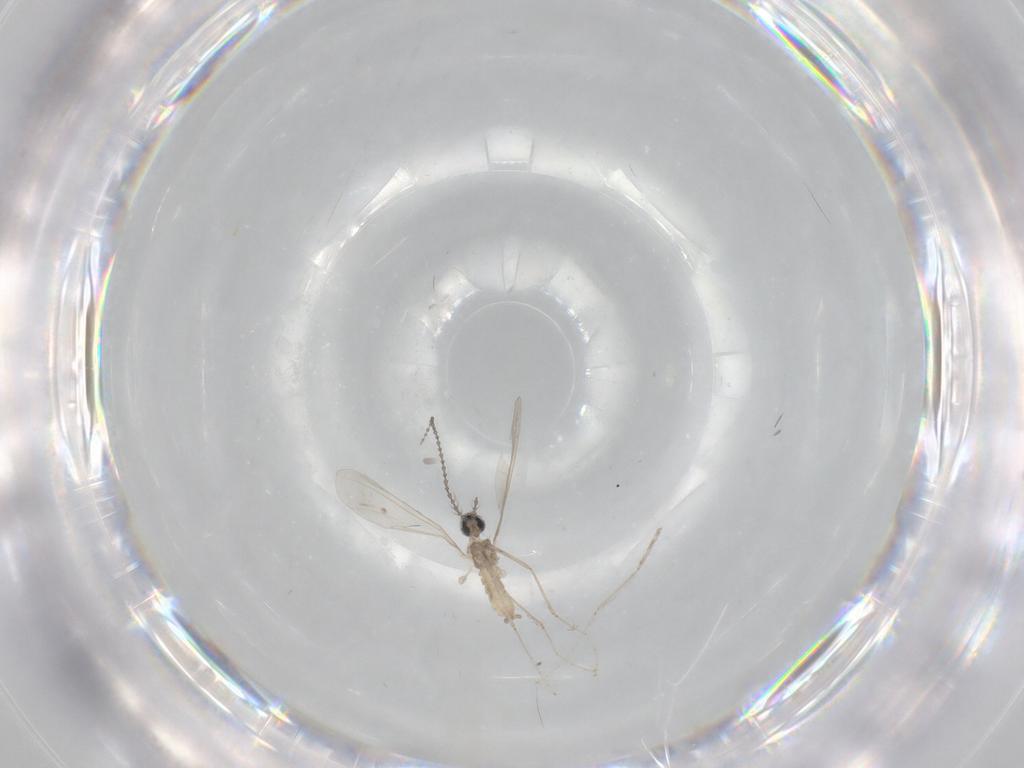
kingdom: Animalia
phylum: Arthropoda
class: Insecta
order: Diptera
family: Cecidomyiidae
